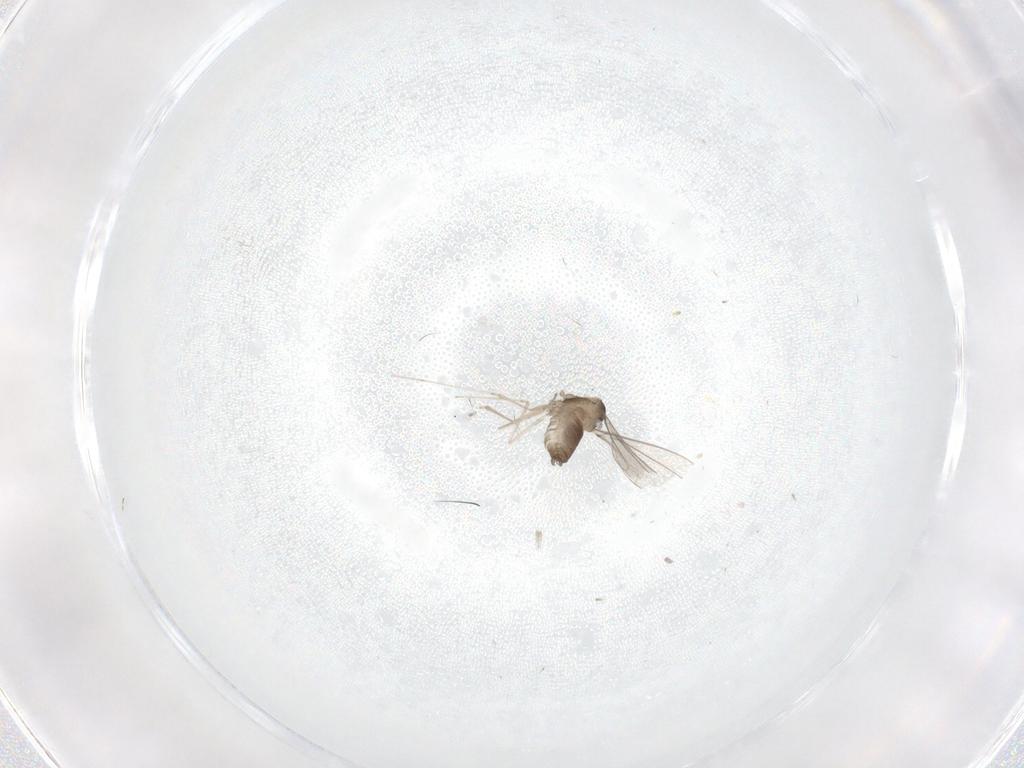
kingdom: Animalia
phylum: Arthropoda
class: Insecta
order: Diptera
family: Cecidomyiidae
